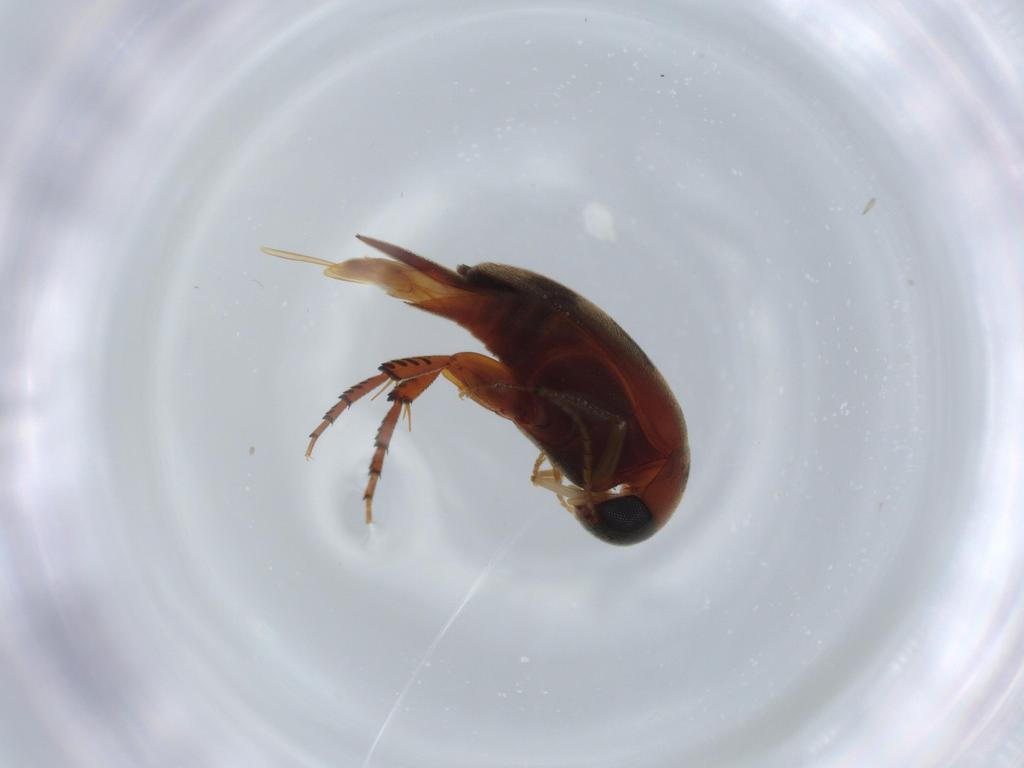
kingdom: Animalia
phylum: Arthropoda
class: Insecta
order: Coleoptera
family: Mordellidae
